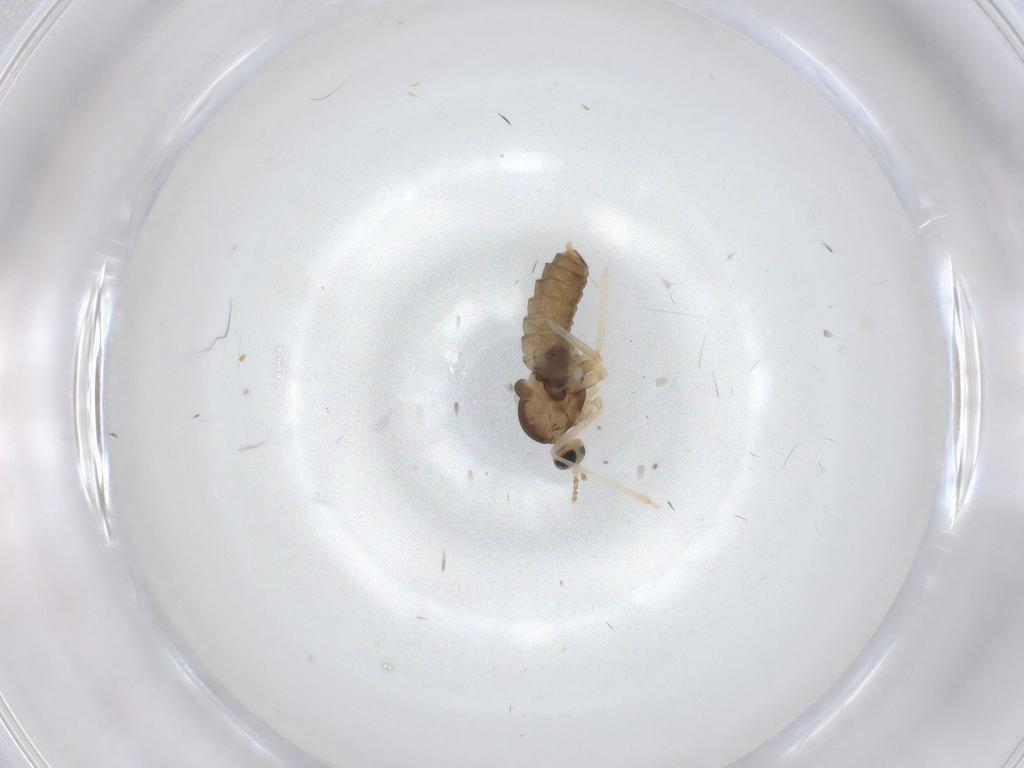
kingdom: Animalia
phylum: Arthropoda
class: Insecta
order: Diptera
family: Cecidomyiidae
